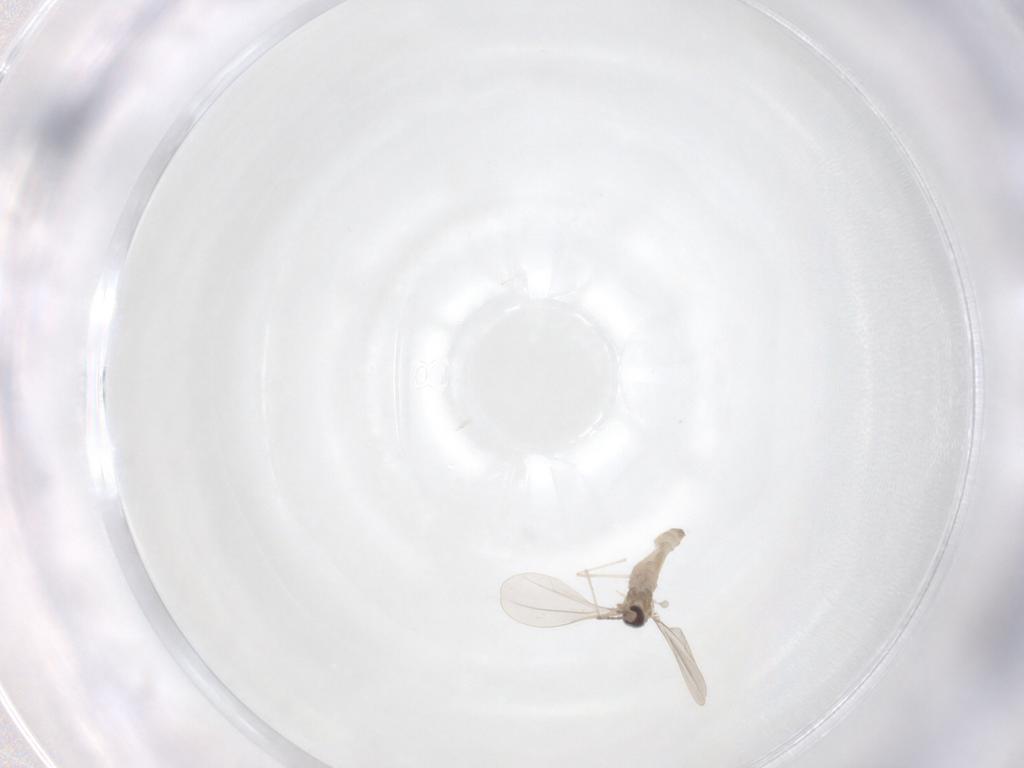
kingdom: Animalia
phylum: Arthropoda
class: Insecta
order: Diptera
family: Cecidomyiidae
